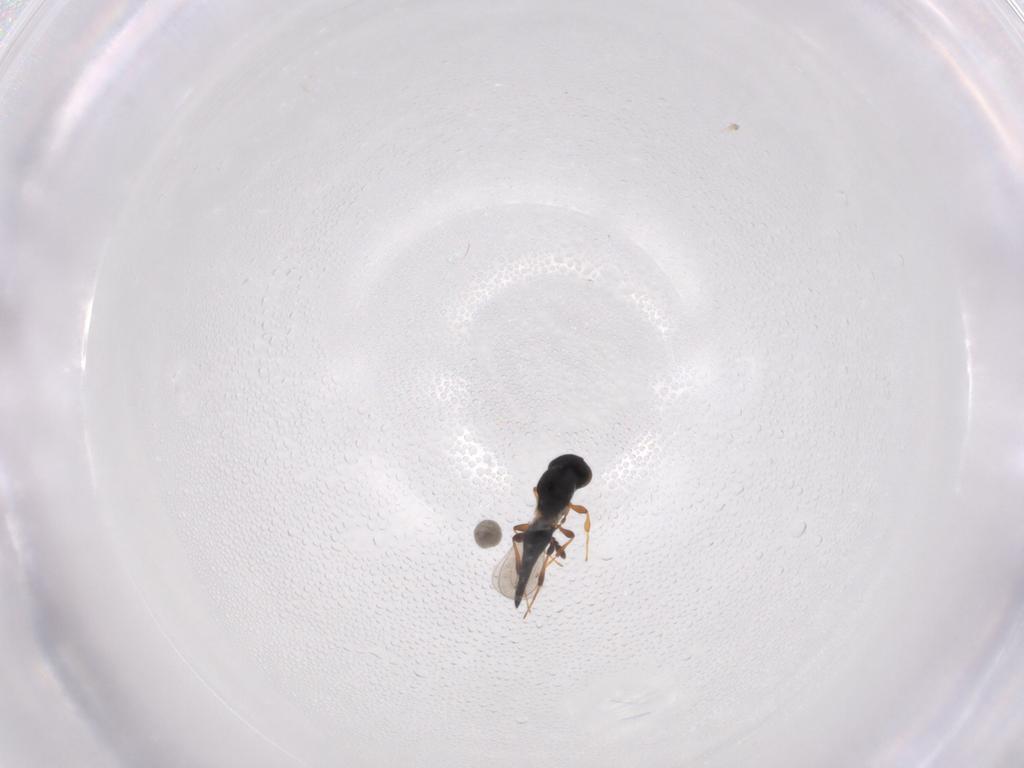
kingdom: Animalia
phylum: Arthropoda
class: Insecta
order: Hymenoptera
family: Platygastridae
